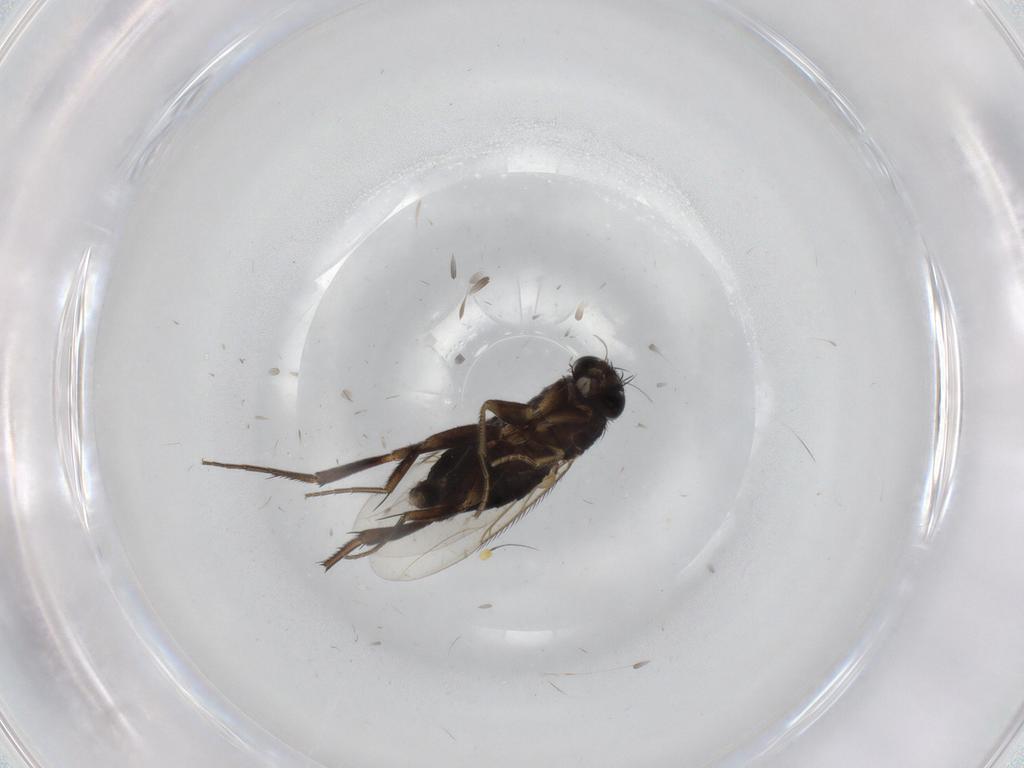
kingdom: Animalia
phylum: Arthropoda
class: Insecta
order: Diptera
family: Phoridae
